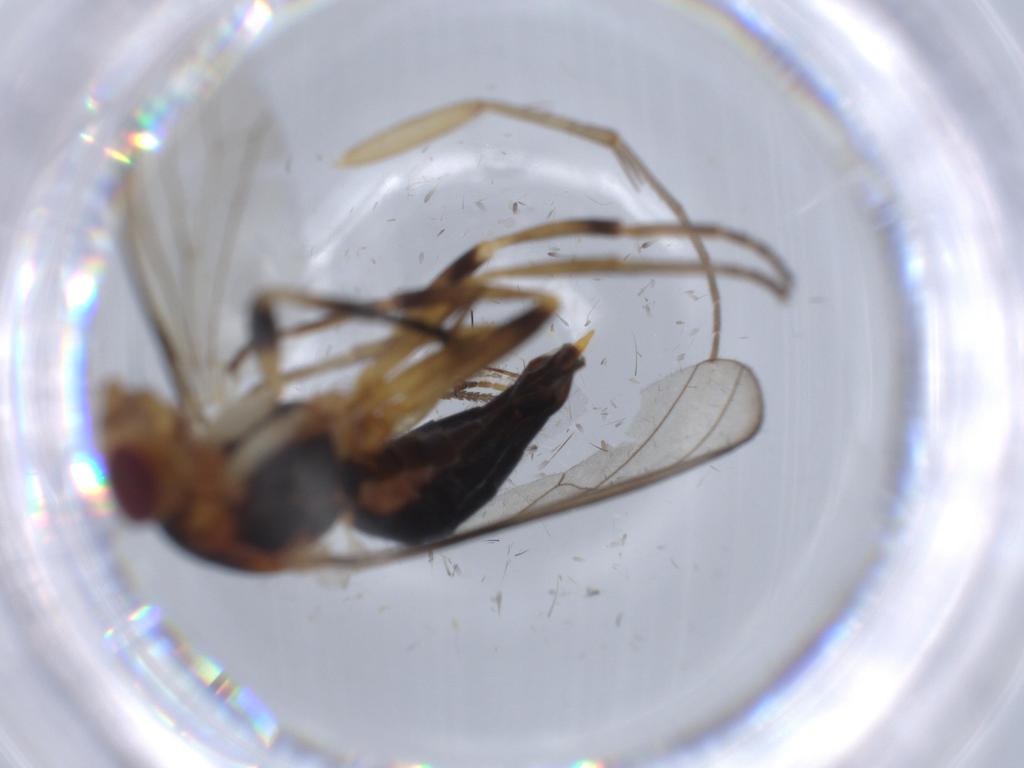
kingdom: Animalia
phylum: Arthropoda
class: Insecta
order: Diptera
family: Piophilidae
